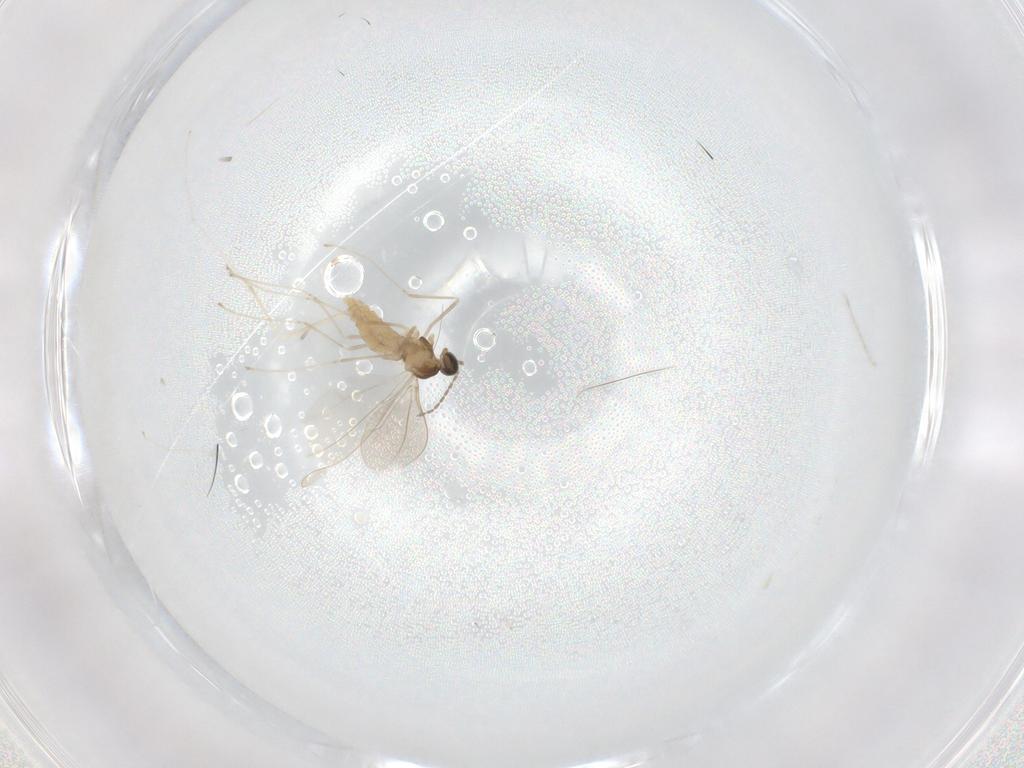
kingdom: Animalia
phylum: Arthropoda
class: Insecta
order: Diptera
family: Cecidomyiidae
